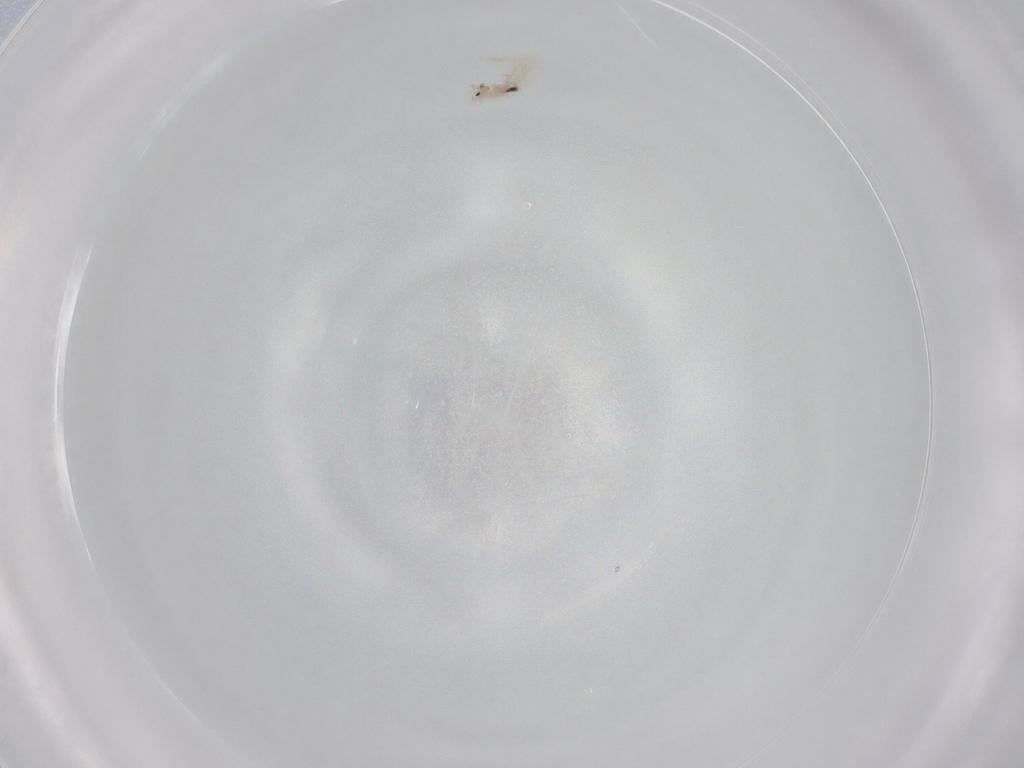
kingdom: Animalia
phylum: Arthropoda
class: Collembola
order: Entomobryomorpha
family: Entomobryidae
